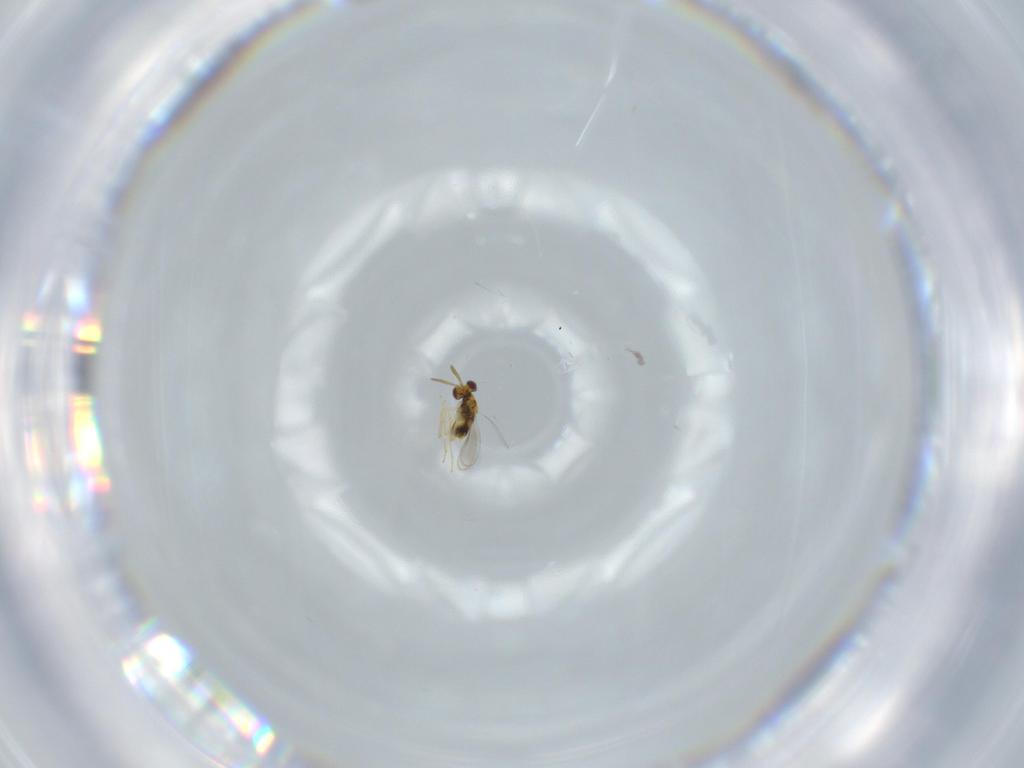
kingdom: Animalia
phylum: Arthropoda
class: Insecta
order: Hymenoptera
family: Aphelinidae
